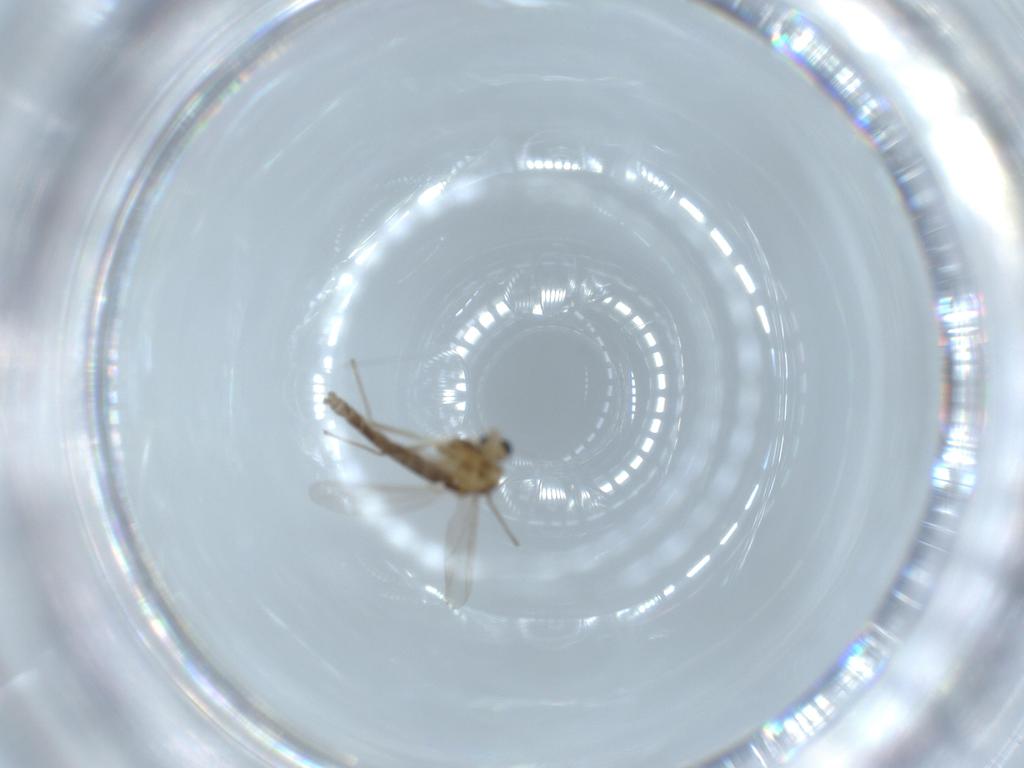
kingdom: Animalia
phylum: Arthropoda
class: Insecta
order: Diptera
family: Chironomidae
